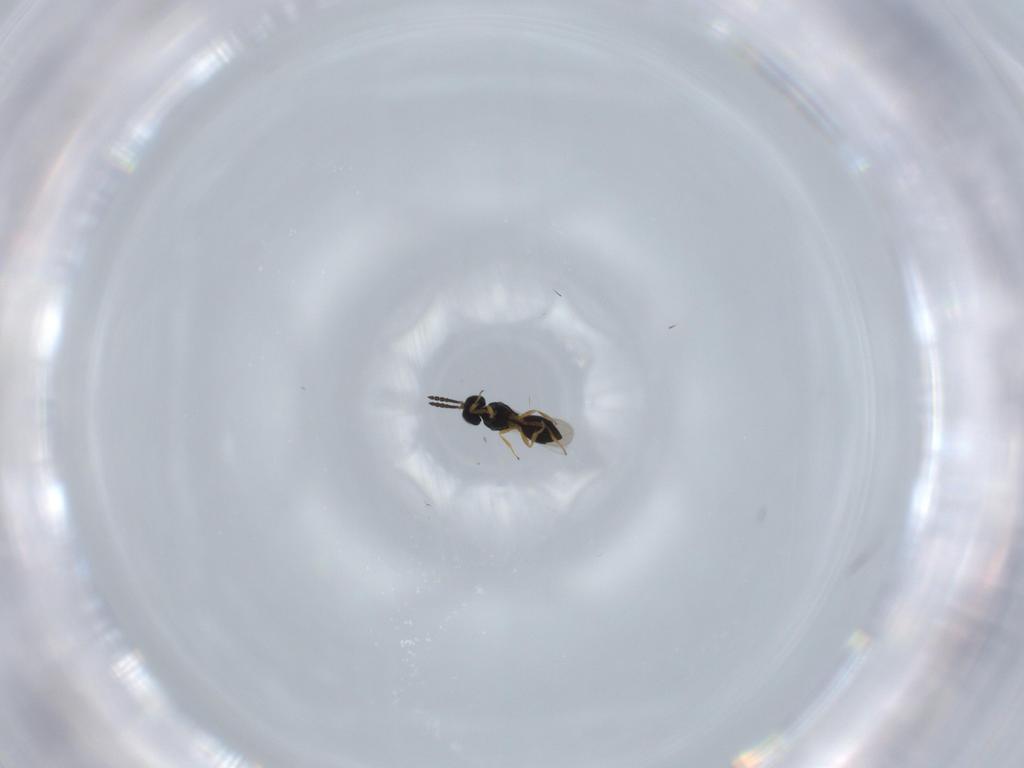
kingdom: Animalia
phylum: Arthropoda
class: Insecta
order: Hymenoptera
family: Scelionidae
